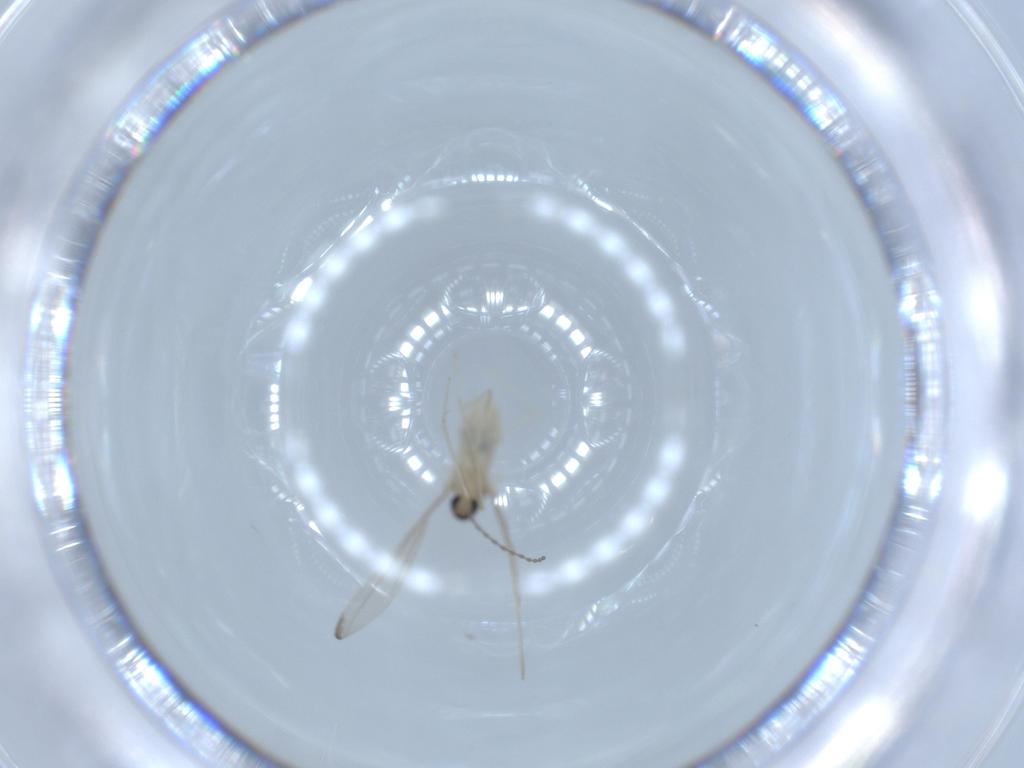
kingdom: Animalia
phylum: Arthropoda
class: Insecta
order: Diptera
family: Cecidomyiidae
